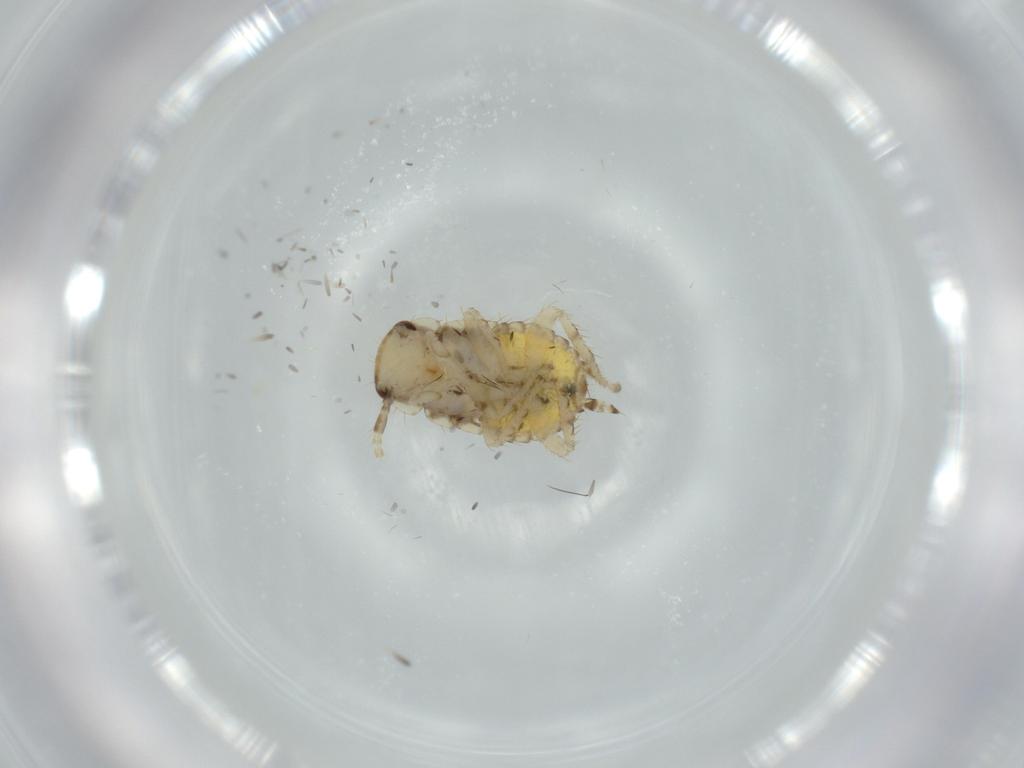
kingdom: Animalia
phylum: Arthropoda
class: Insecta
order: Blattodea
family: Ectobiidae
